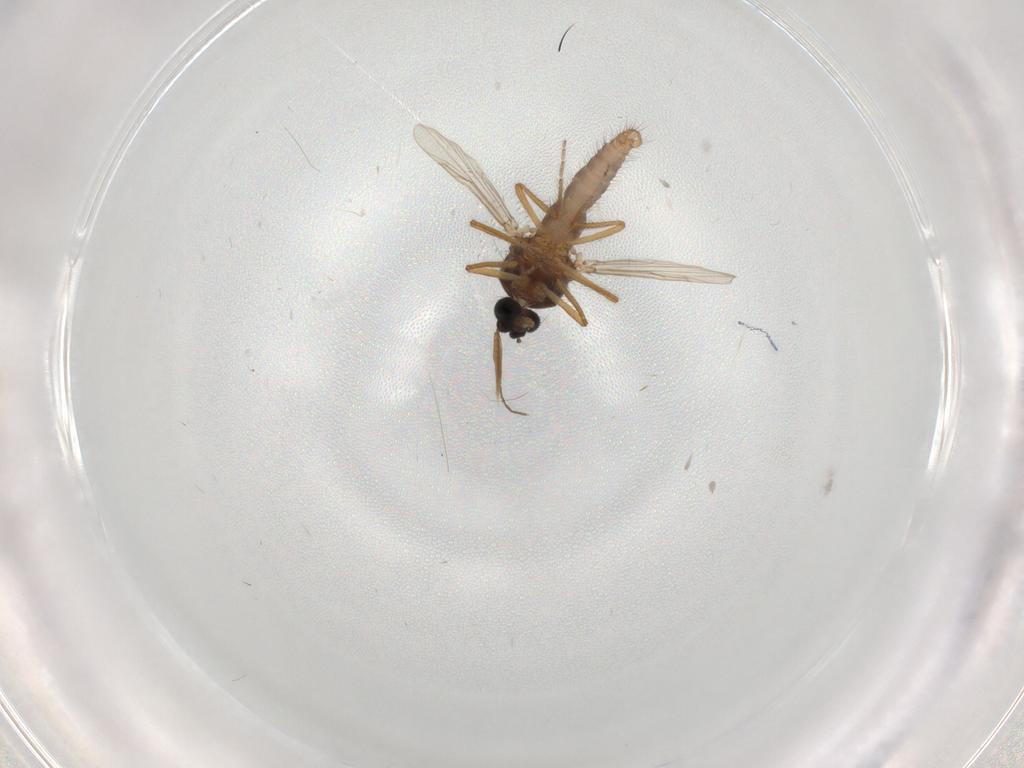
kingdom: Animalia
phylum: Arthropoda
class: Insecta
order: Diptera
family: Ceratopogonidae
